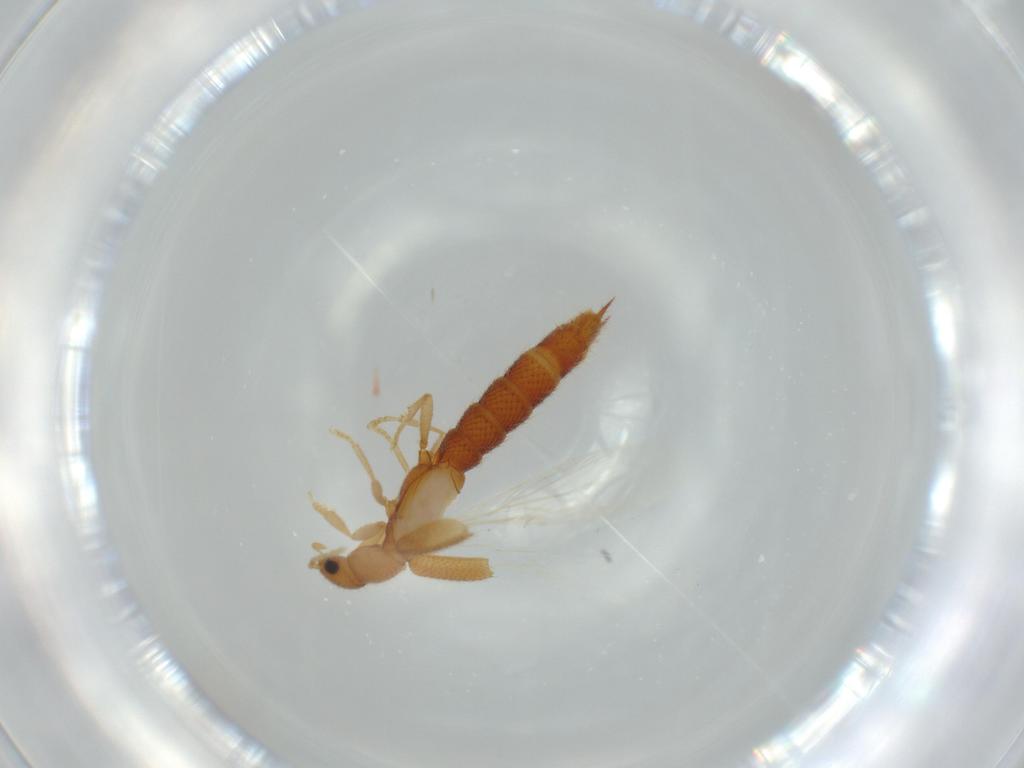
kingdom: Animalia
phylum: Arthropoda
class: Insecta
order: Coleoptera
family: Staphylinidae
